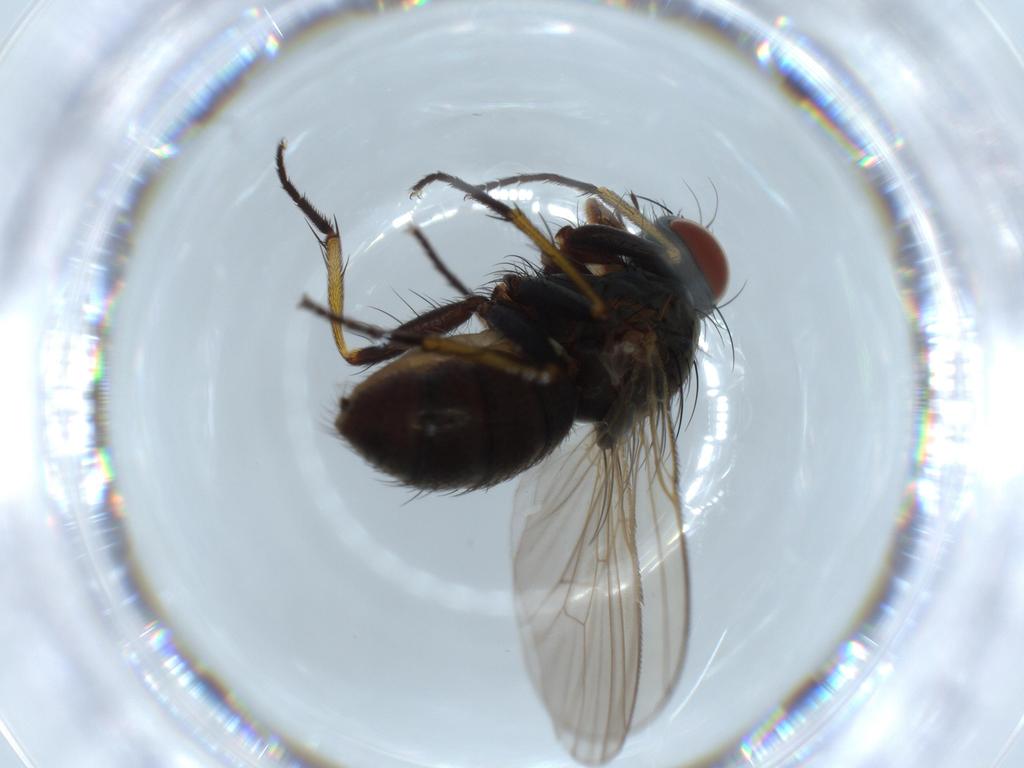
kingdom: Animalia
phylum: Arthropoda
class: Insecta
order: Diptera
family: Muscidae
